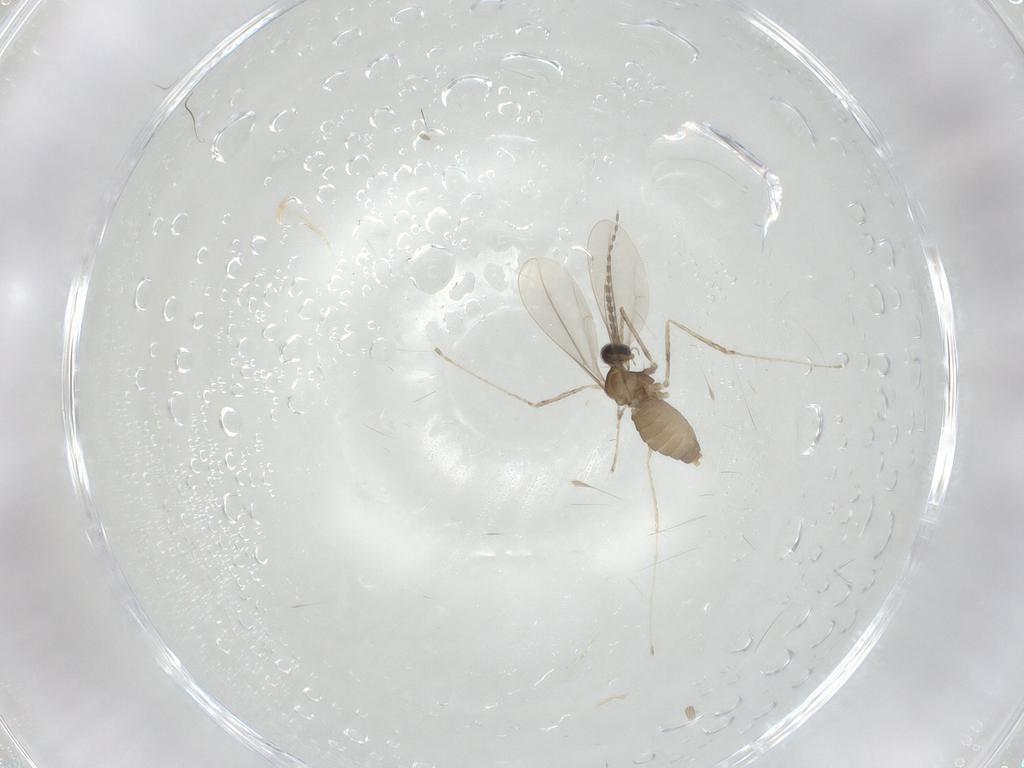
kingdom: Animalia
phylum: Arthropoda
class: Insecta
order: Diptera
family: Cecidomyiidae
